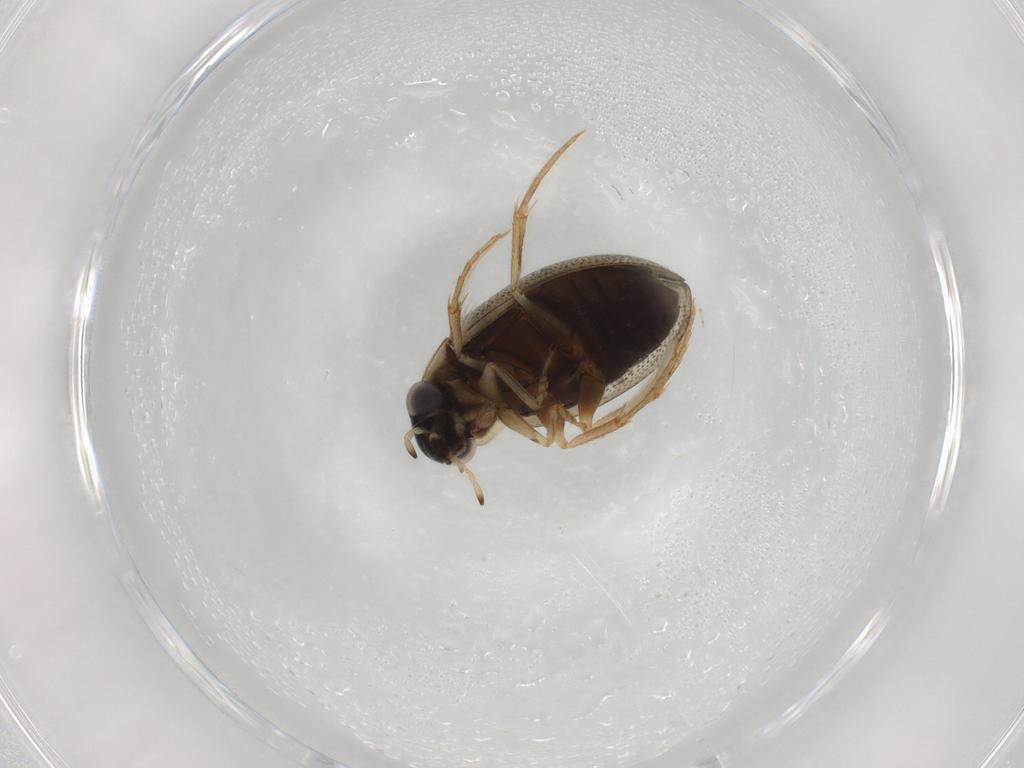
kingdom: Animalia
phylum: Arthropoda
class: Insecta
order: Coleoptera
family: Hydrophilidae
